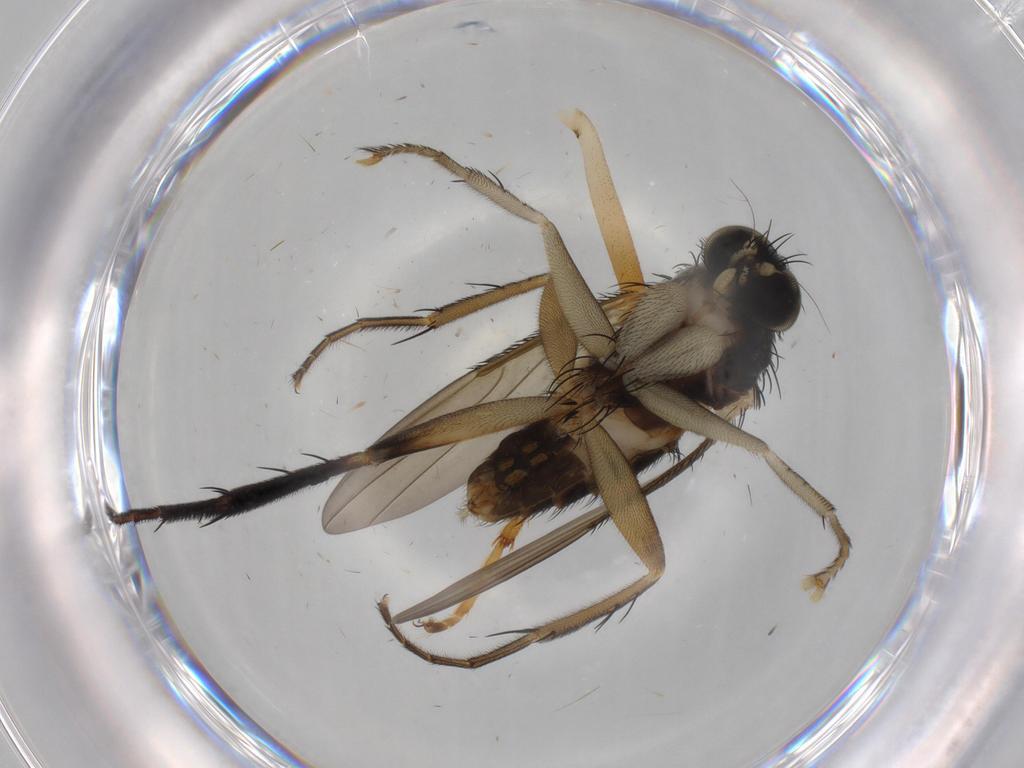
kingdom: Animalia
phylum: Arthropoda
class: Insecta
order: Diptera
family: Phoridae
